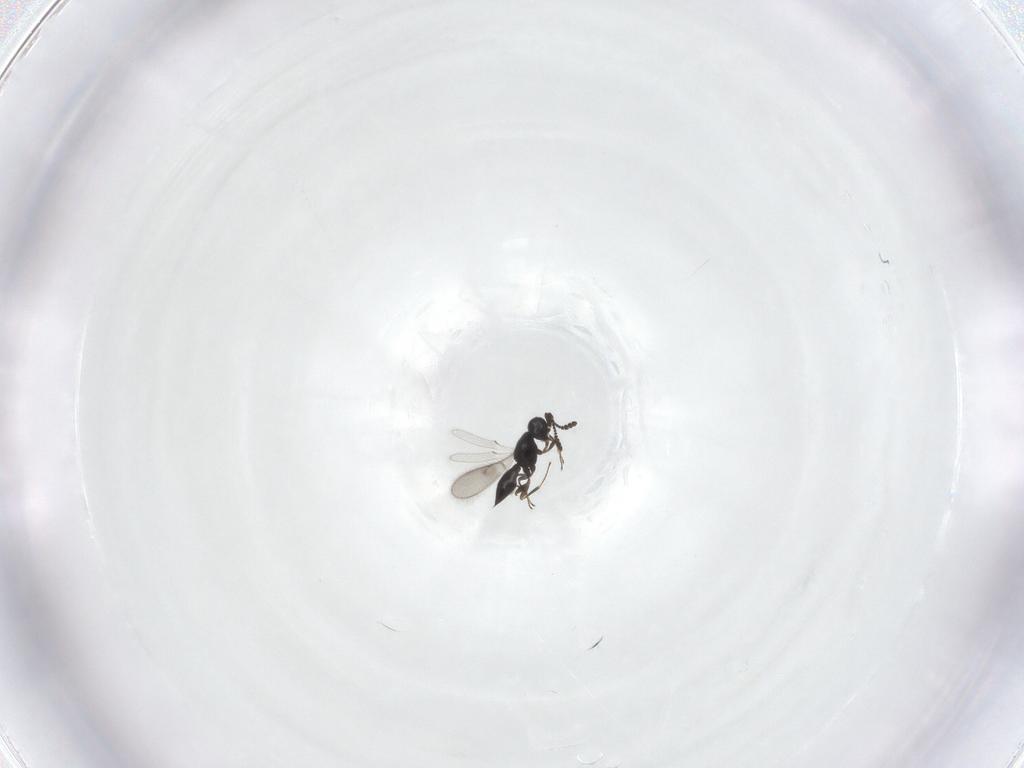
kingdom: Animalia
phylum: Arthropoda
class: Insecta
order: Hymenoptera
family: Scelionidae
